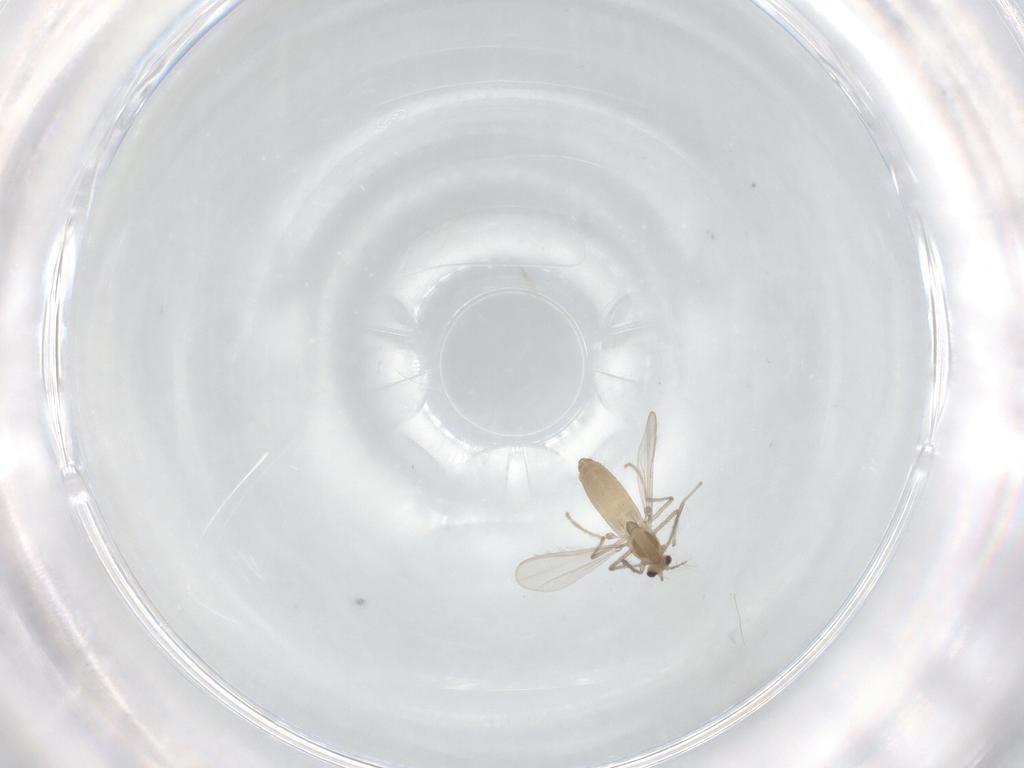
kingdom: Animalia
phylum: Arthropoda
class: Insecta
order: Diptera
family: Chironomidae
